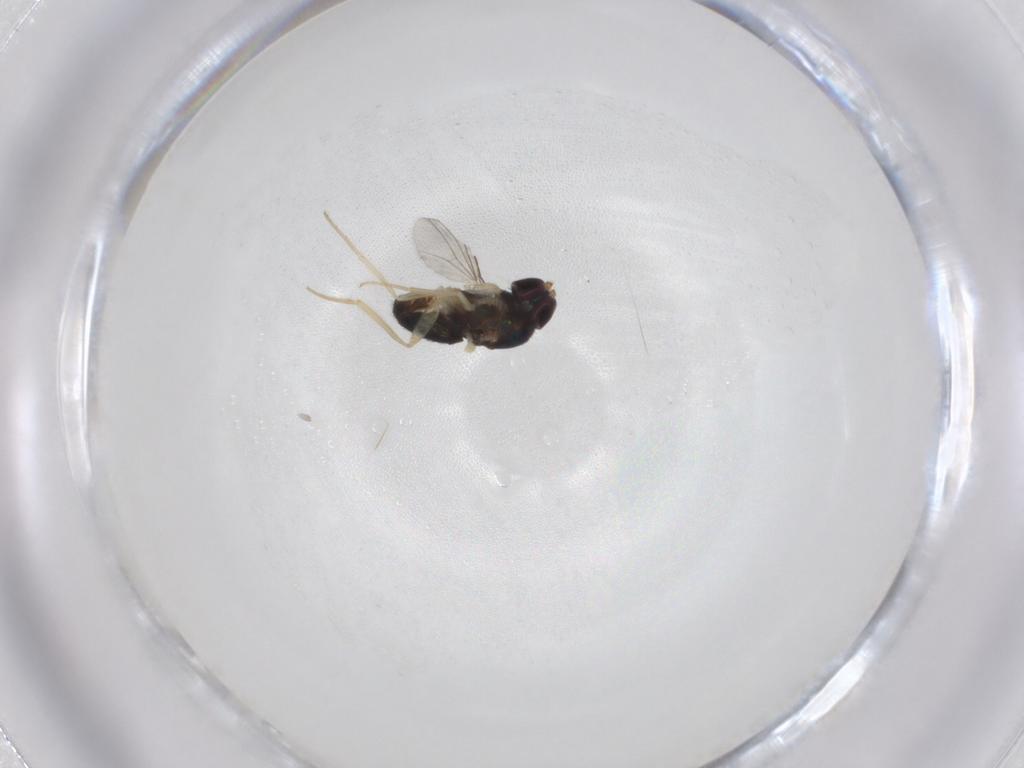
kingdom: Animalia
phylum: Arthropoda
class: Insecta
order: Diptera
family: Dolichopodidae
